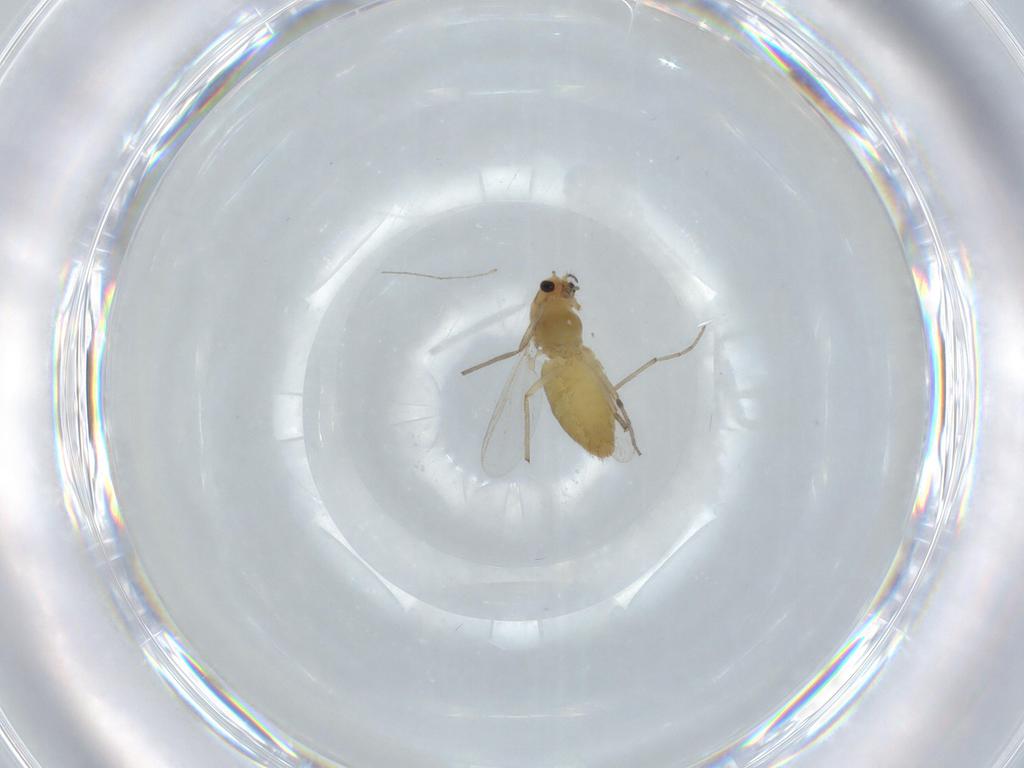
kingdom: Animalia
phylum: Arthropoda
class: Insecta
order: Diptera
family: Chironomidae
